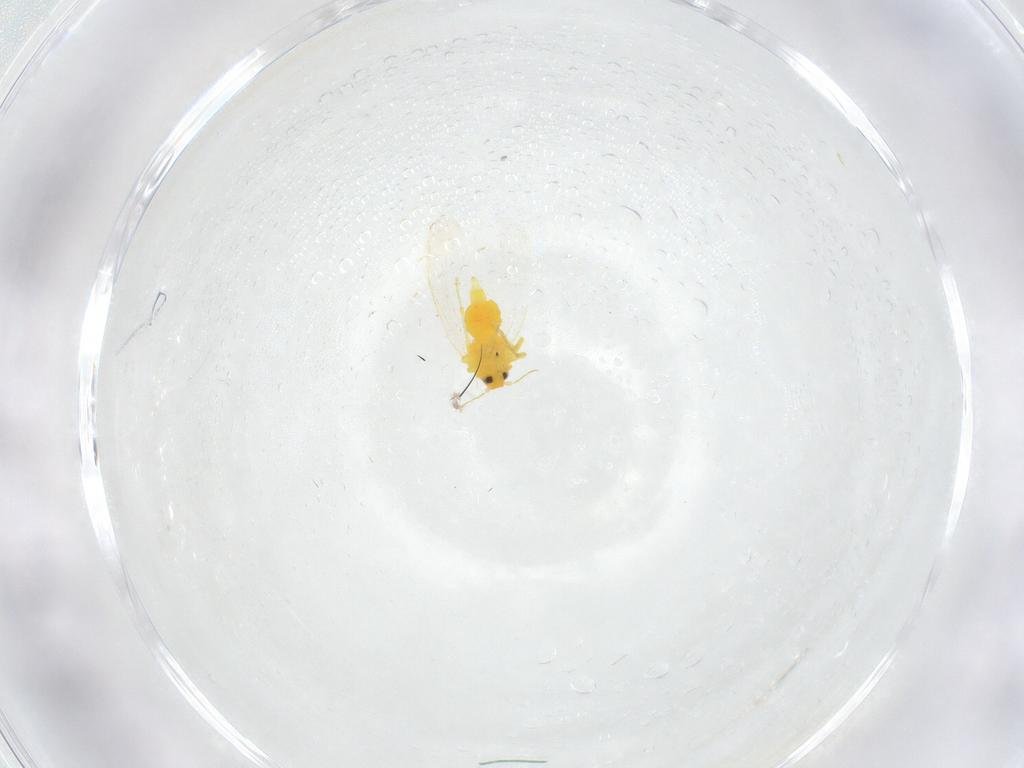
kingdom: Animalia
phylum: Arthropoda
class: Insecta
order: Hemiptera
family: Aleyrodidae
